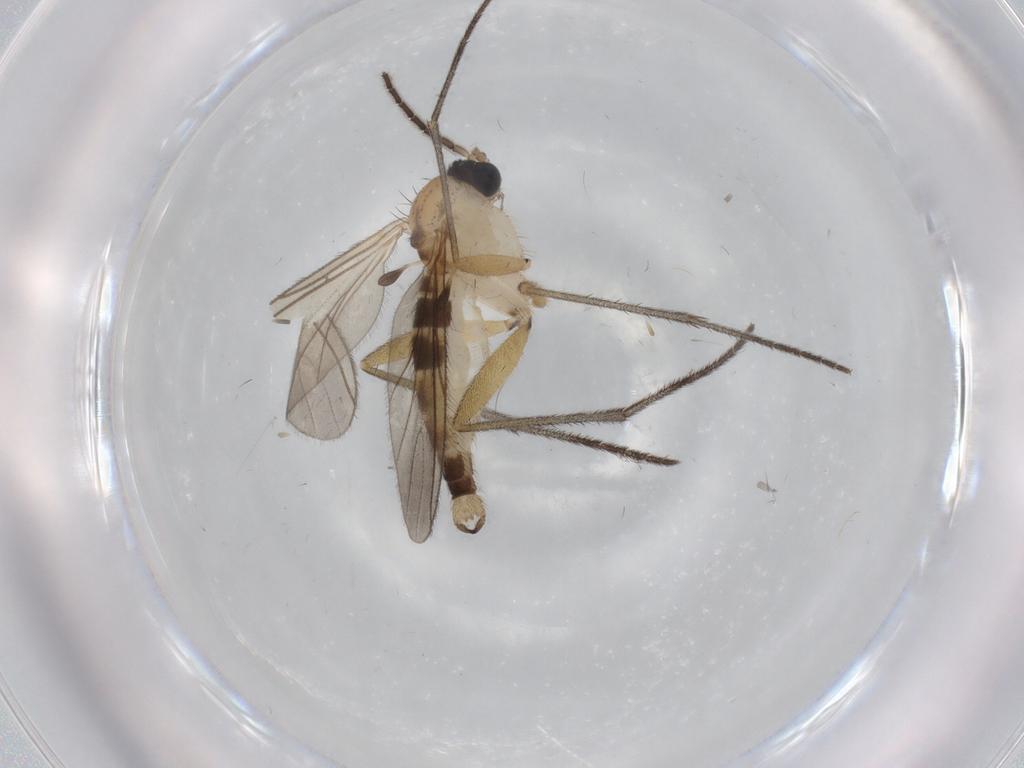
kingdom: Animalia
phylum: Arthropoda
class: Insecta
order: Diptera
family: Sciaridae
